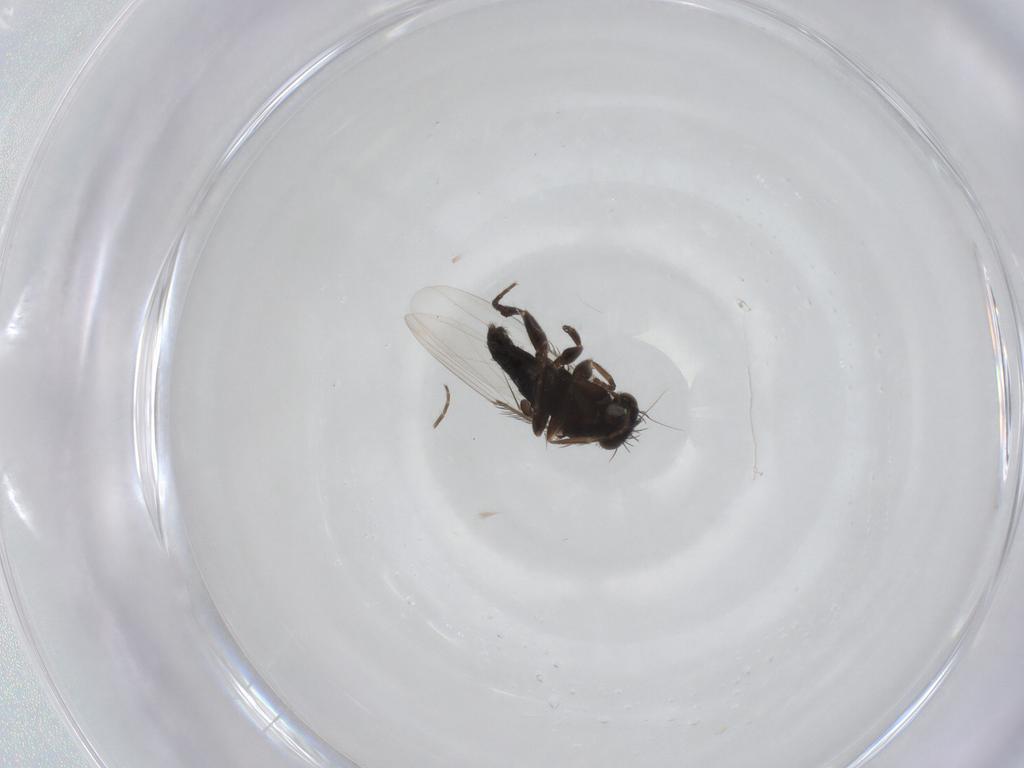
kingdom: Animalia
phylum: Arthropoda
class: Insecta
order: Diptera
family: Phoridae
